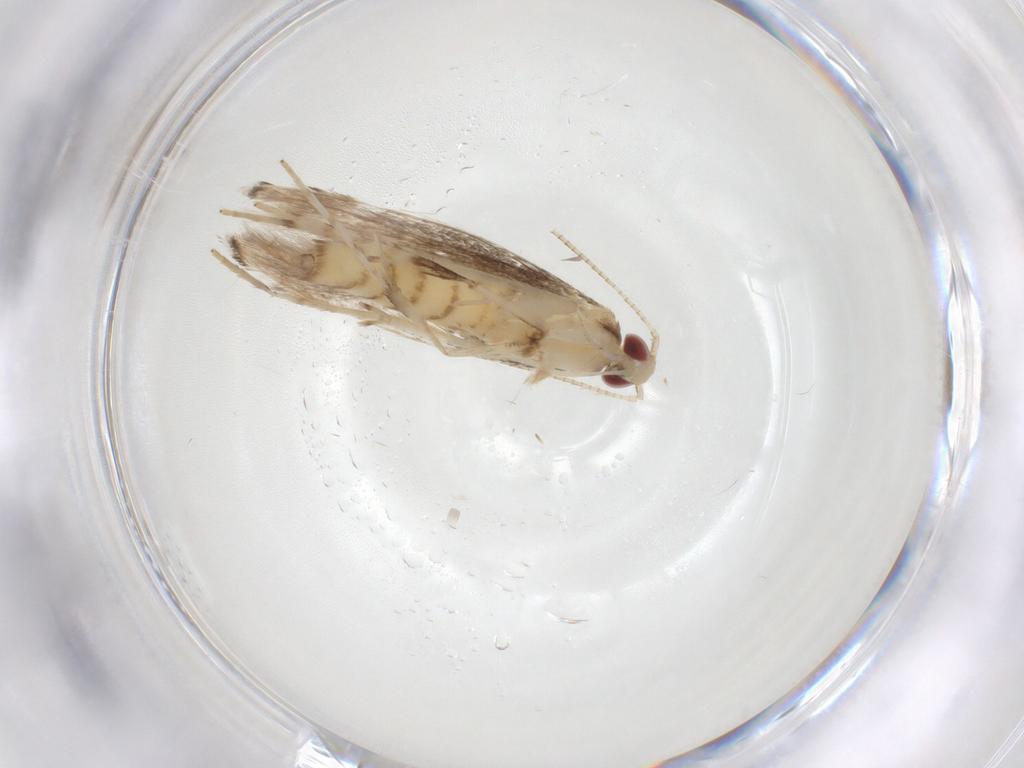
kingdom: Animalia
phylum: Arthropoda
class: Insecta
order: Lepidoptera
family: Crambidae
